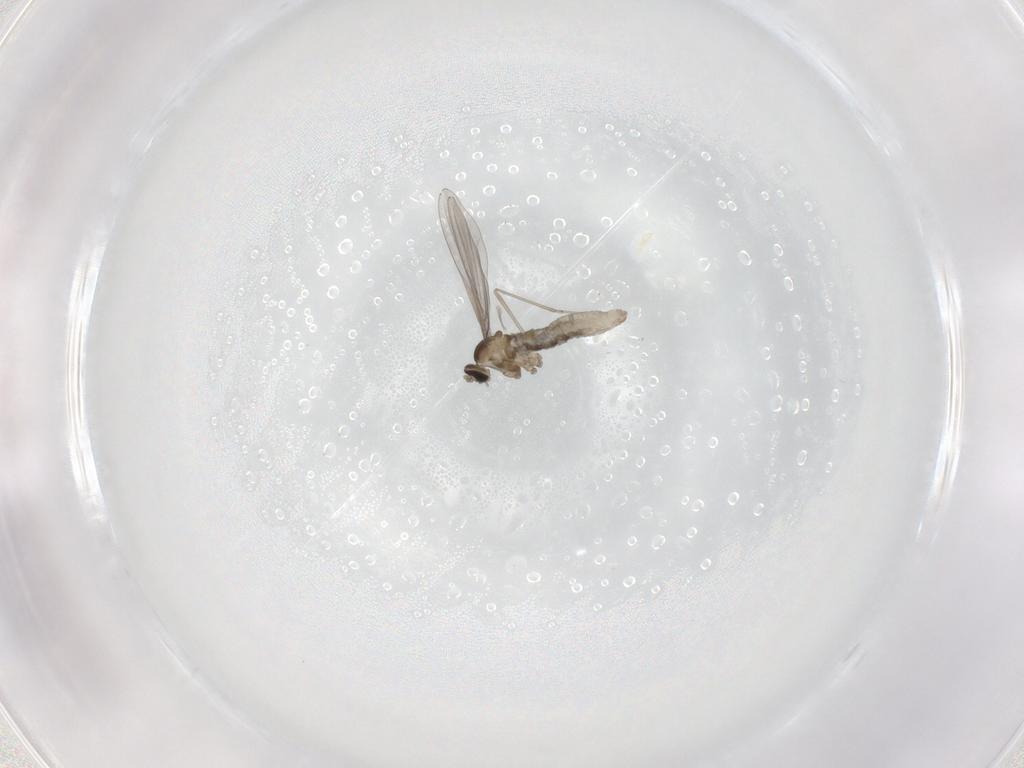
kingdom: Animalia
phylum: Arthropoda
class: Insecta
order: Diptera
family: Cecidomyiidae
